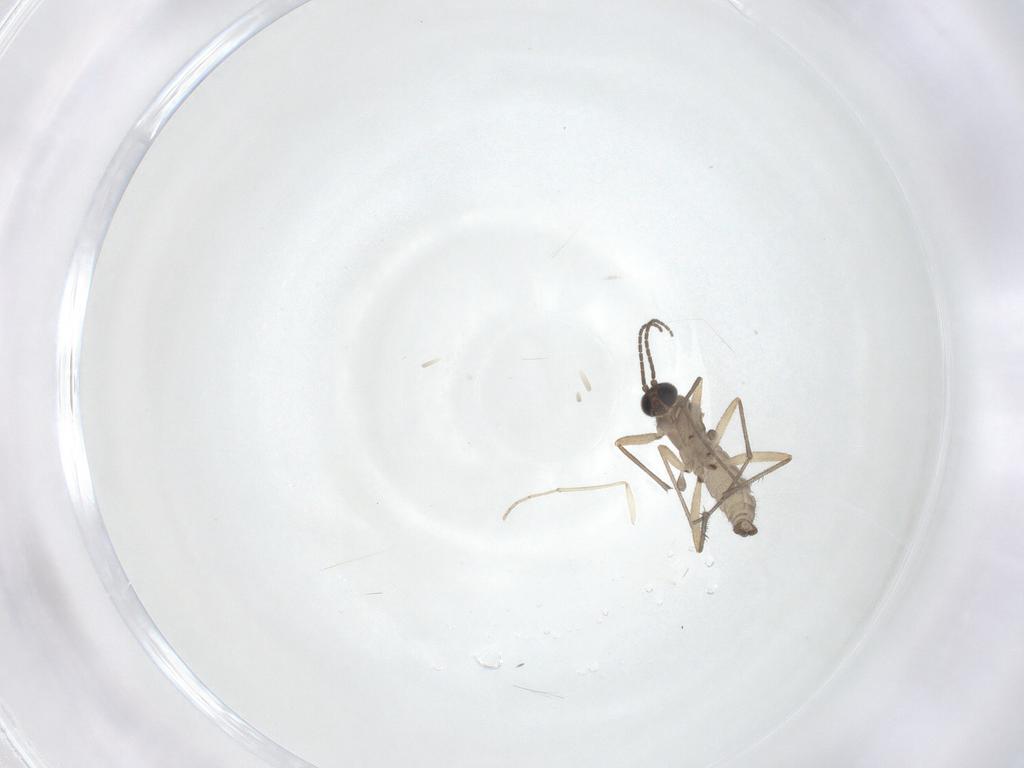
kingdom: Animalia
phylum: Arthropoda
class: Insecta
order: Diptera
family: Sciaridae
